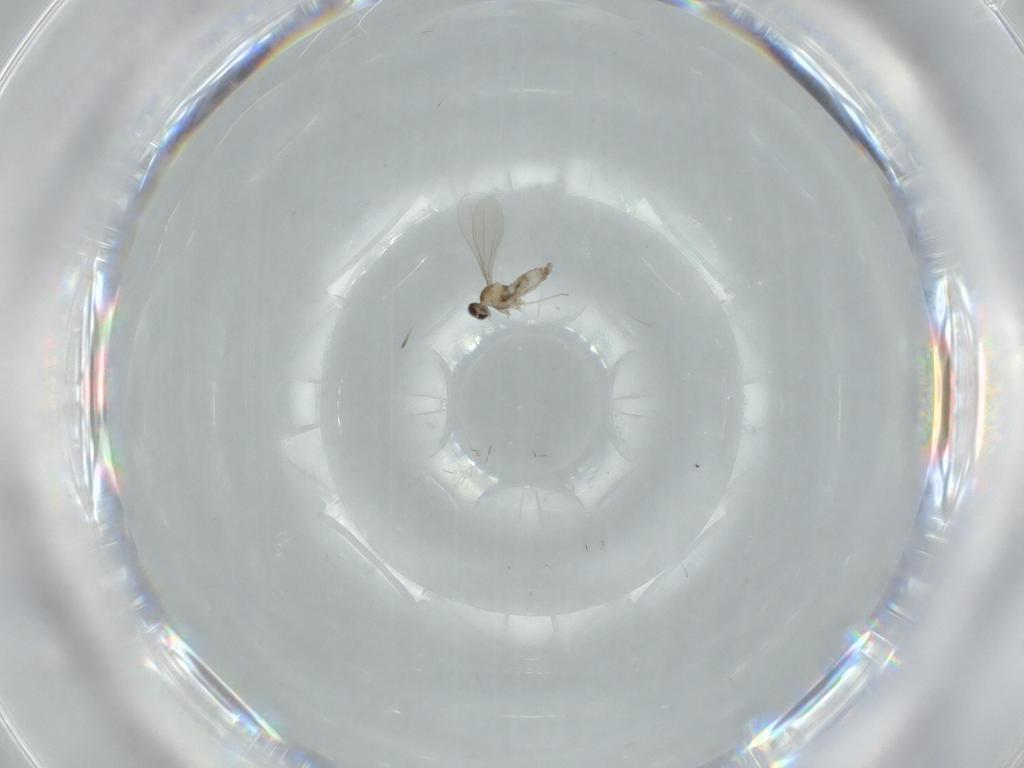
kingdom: Animalia
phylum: Arthropoda
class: Insecta
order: Diptera
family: Cecidomyiidae
